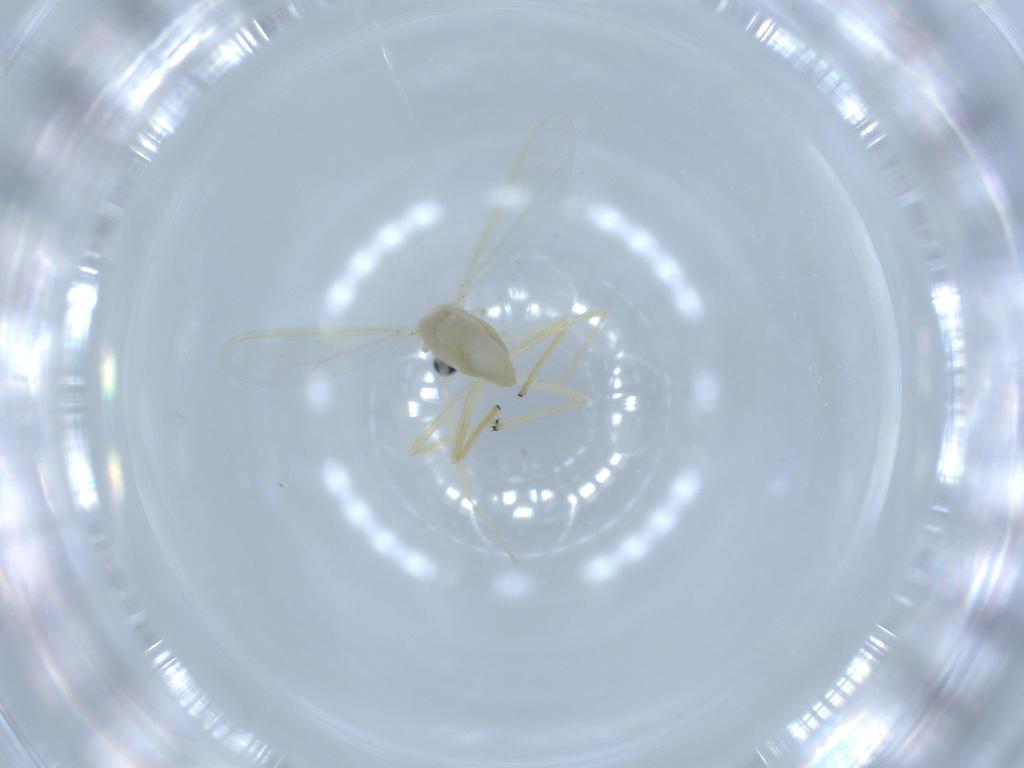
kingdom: Animalia
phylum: Arthropoda
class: Insecta
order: Diptera
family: Chironomidae
